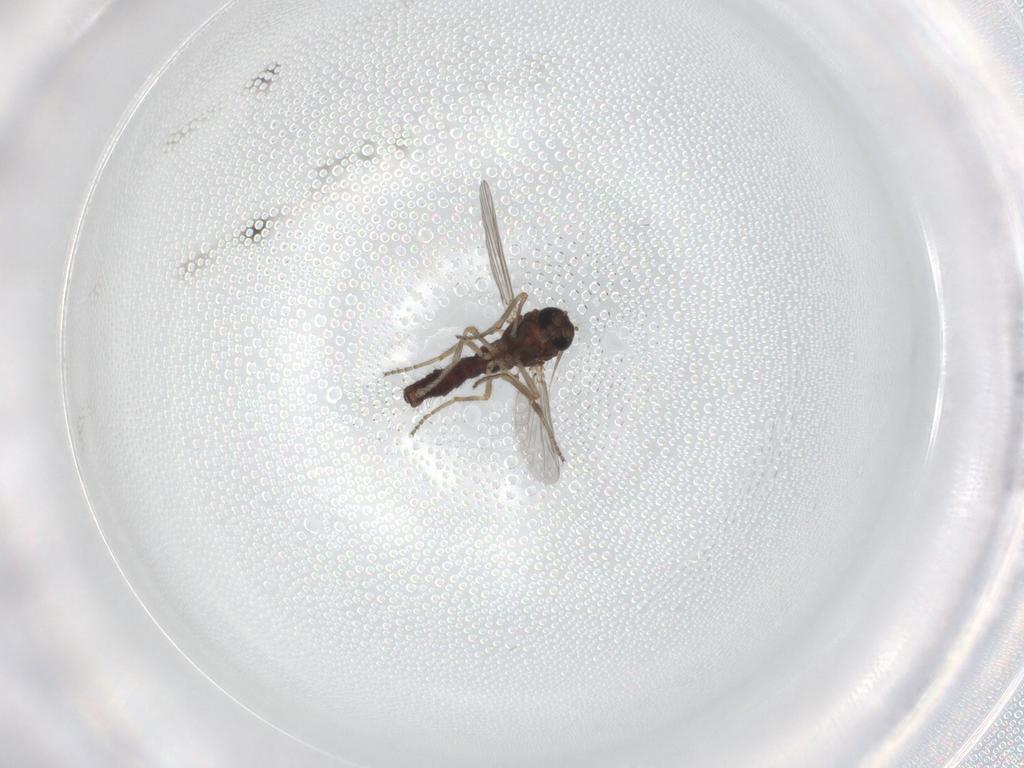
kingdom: Animalia
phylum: Arthropoda
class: Insecta
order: Diptera
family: Ceratopogonidae
